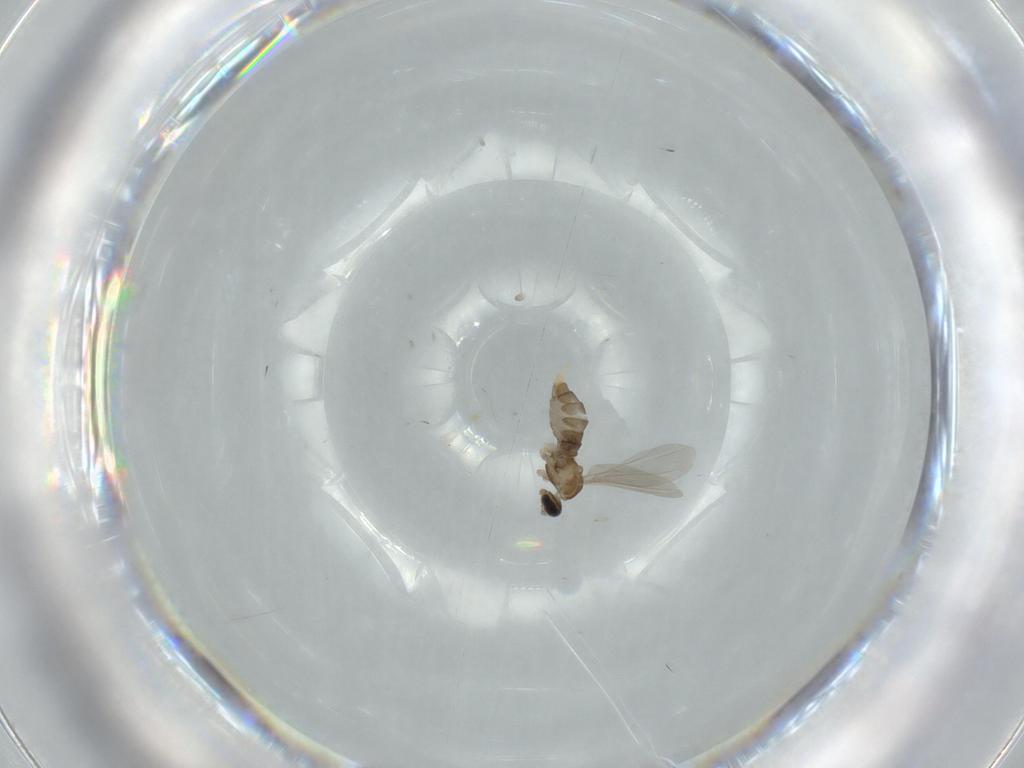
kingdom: Animalia
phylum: Arthropoda
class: Insecta
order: Diptera
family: Cecidomyiidae
